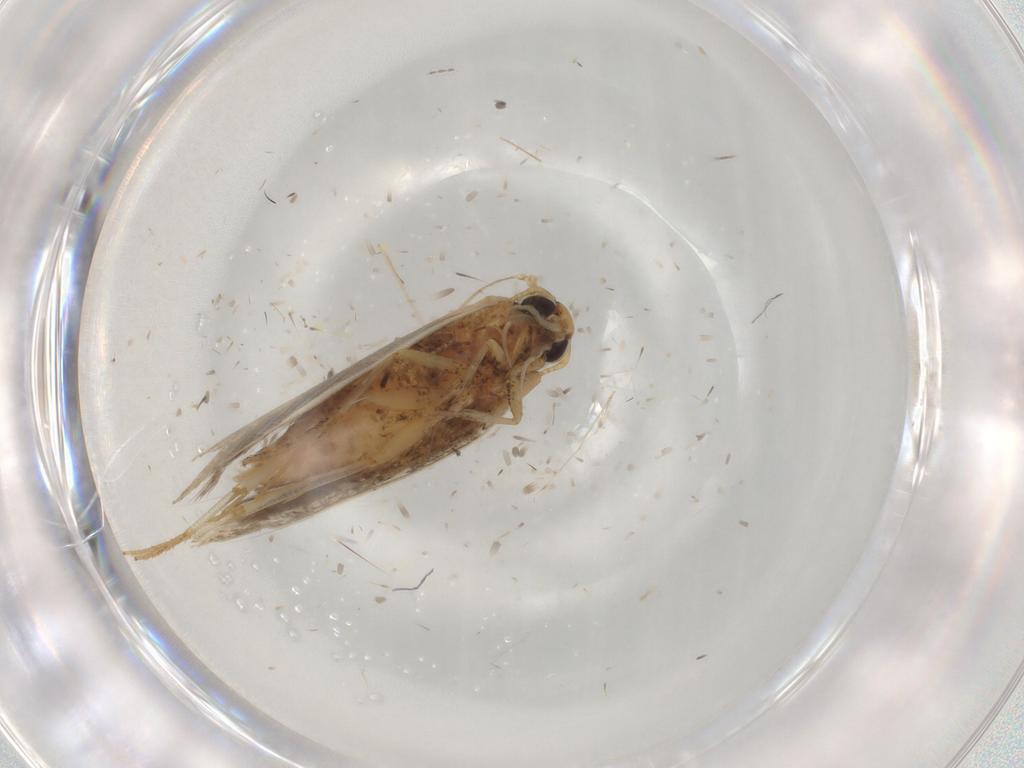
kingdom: Animalia
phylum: Arthropoda
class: Insecta
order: Lepidoptera
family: Gelechiidae
